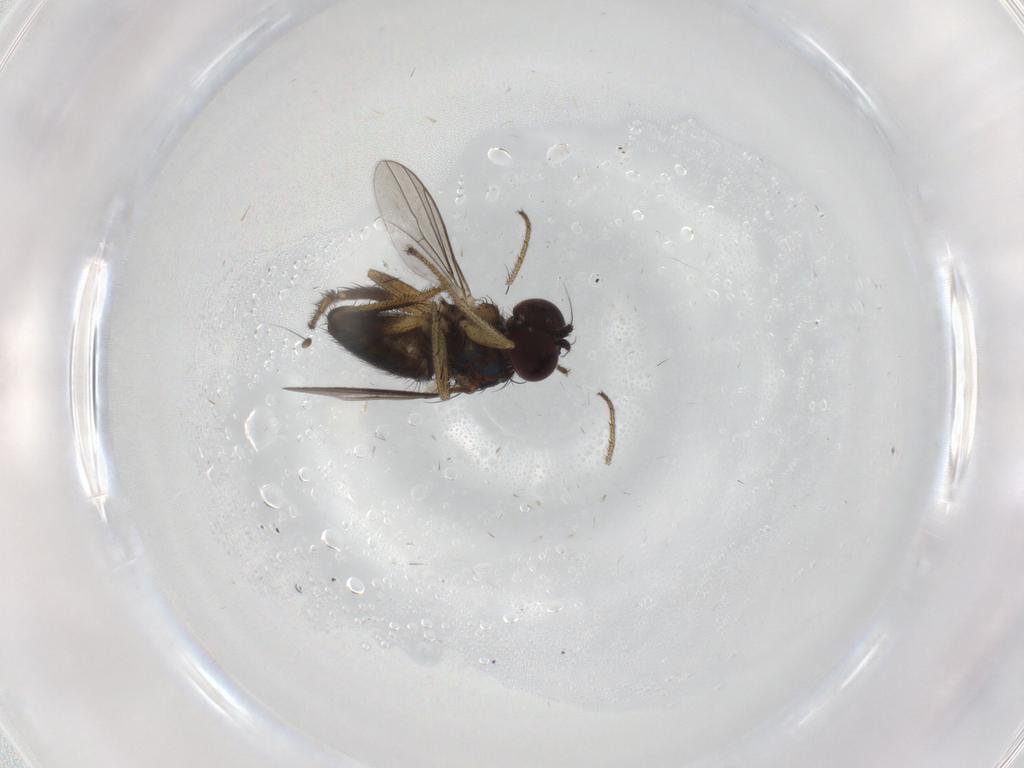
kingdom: Animalia
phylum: Arthropoda
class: Insecta
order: Diptera
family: Dolichopodidae
